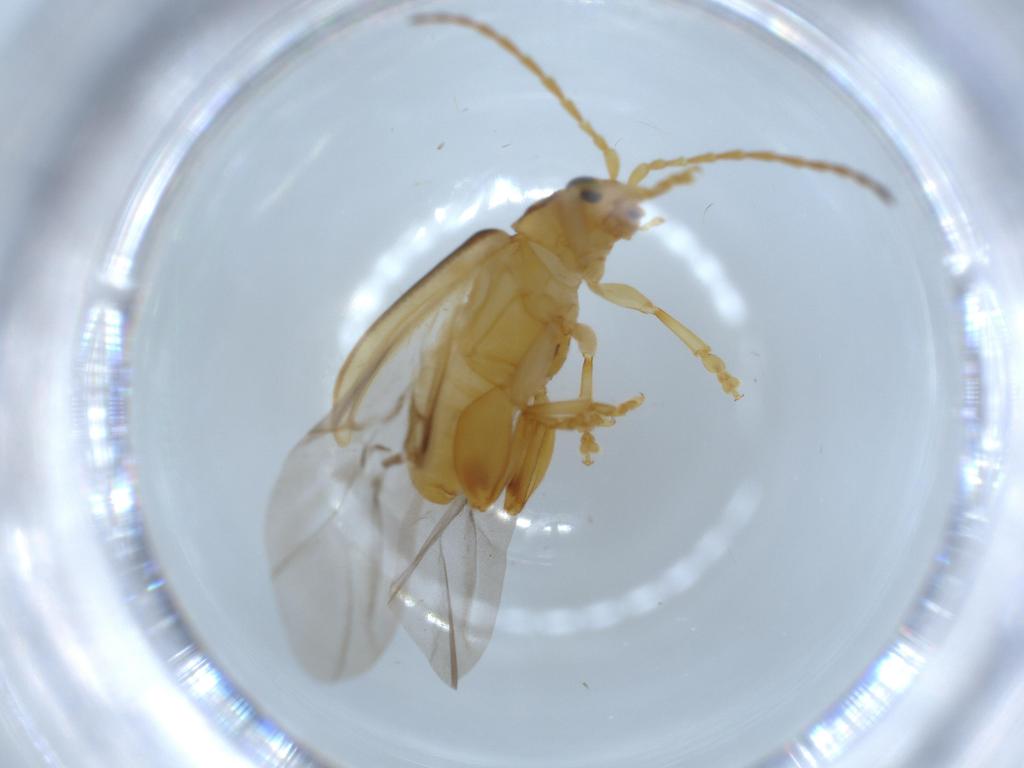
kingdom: Animalia
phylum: Arthropoda
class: Insecta
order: Coleoptera
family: Chrysomelidae
